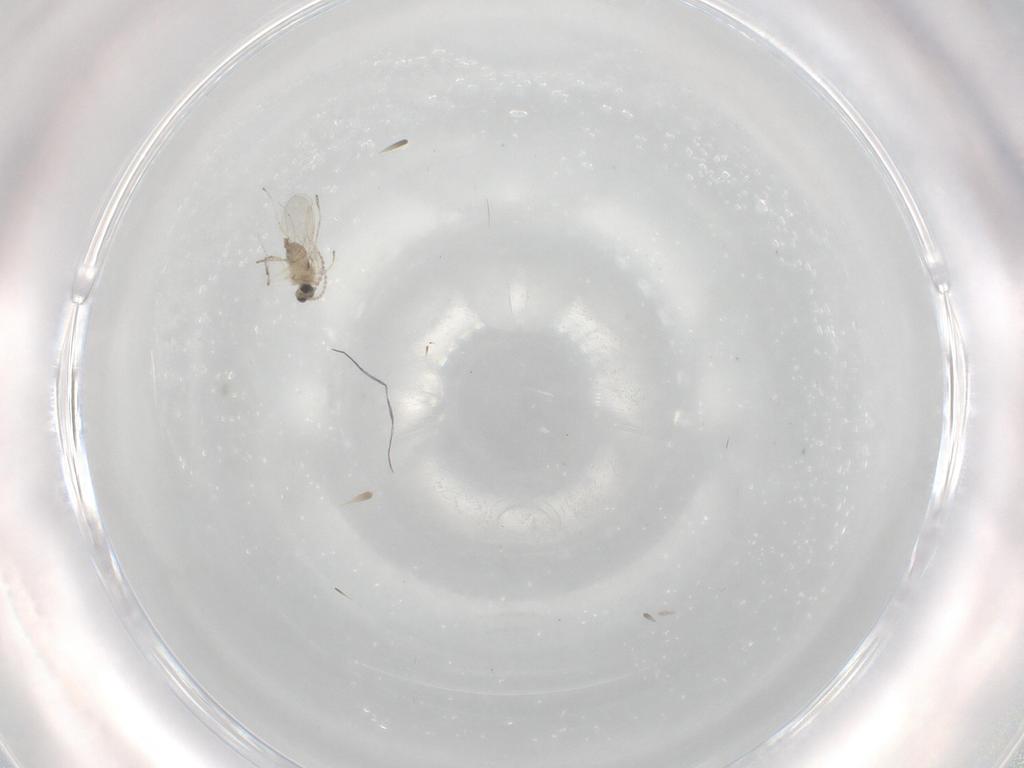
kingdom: Animalia
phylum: Arthropoda
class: Insecta
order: Diptera
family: Cecidomyiidae
